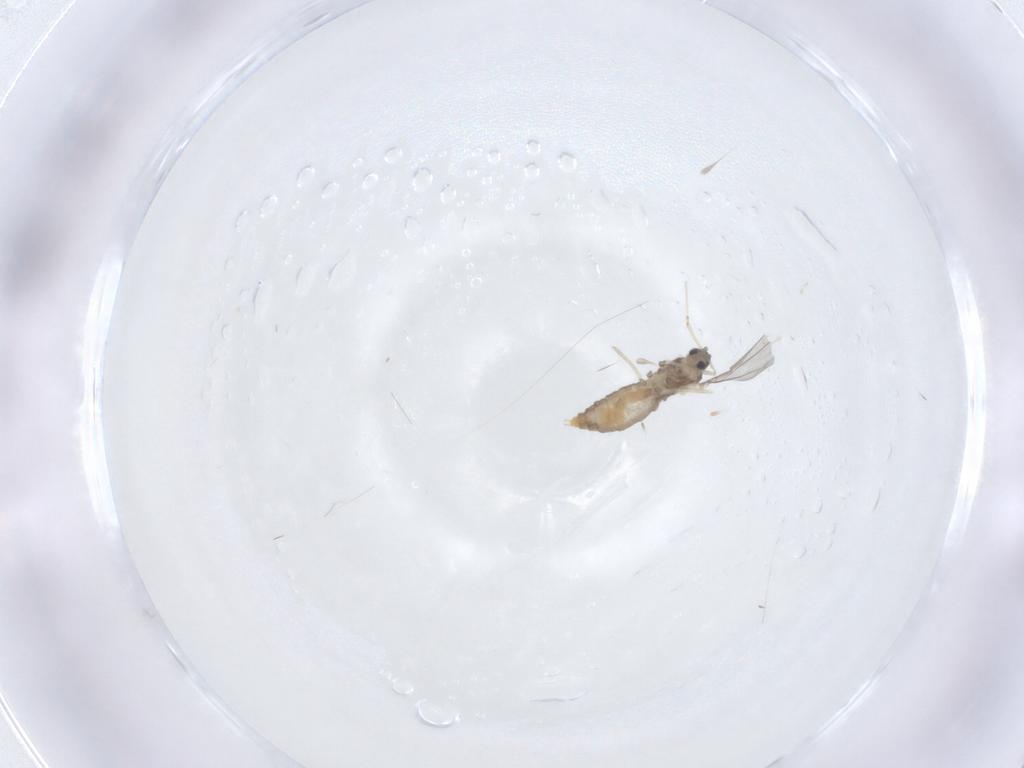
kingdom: Animalia
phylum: Arthropoda
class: Insecta
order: Diptera
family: Cecidomyiidae
